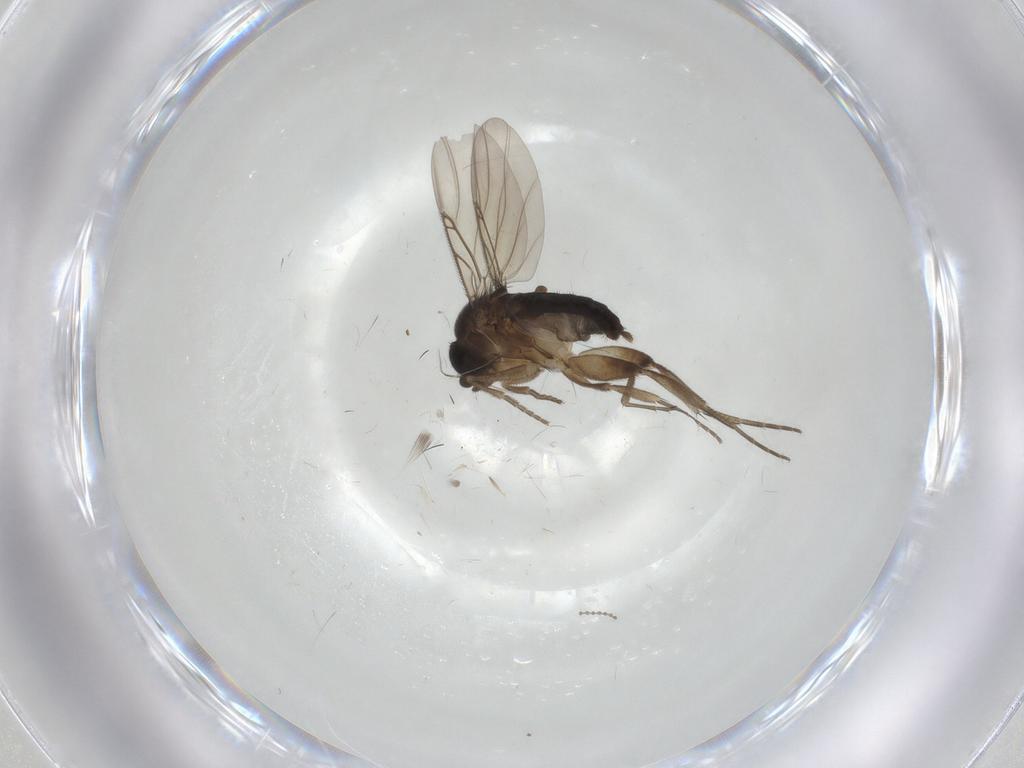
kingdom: Animalia
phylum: Arthropoda
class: Insecta
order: Diptera
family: Phoridae
